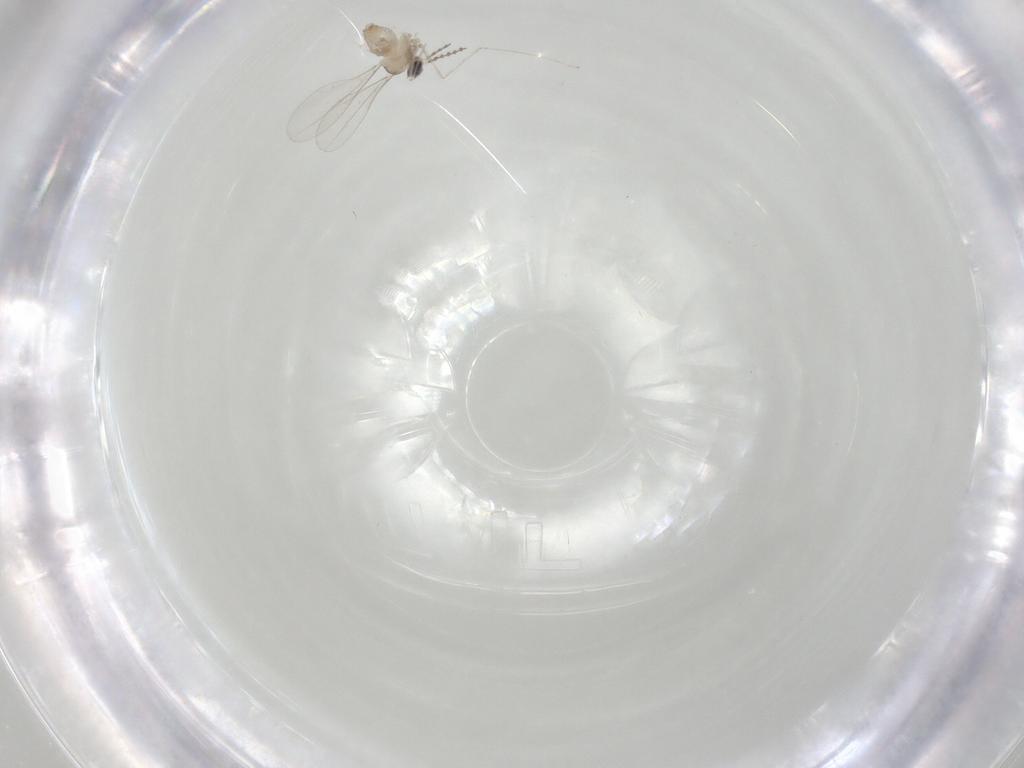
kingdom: Animalia
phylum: Arthropoda
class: Insecta
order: Diptera
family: Cecidomyiidae
